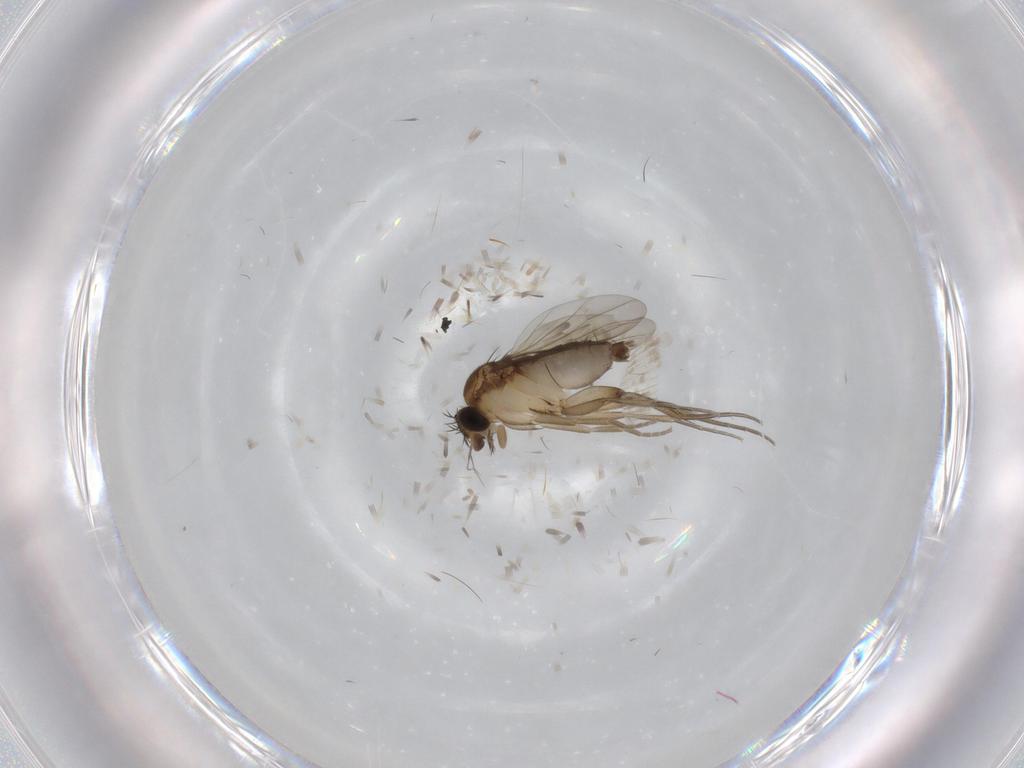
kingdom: Animalia
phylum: Arthropoda
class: Insecta
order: Diptera
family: Phoridae
